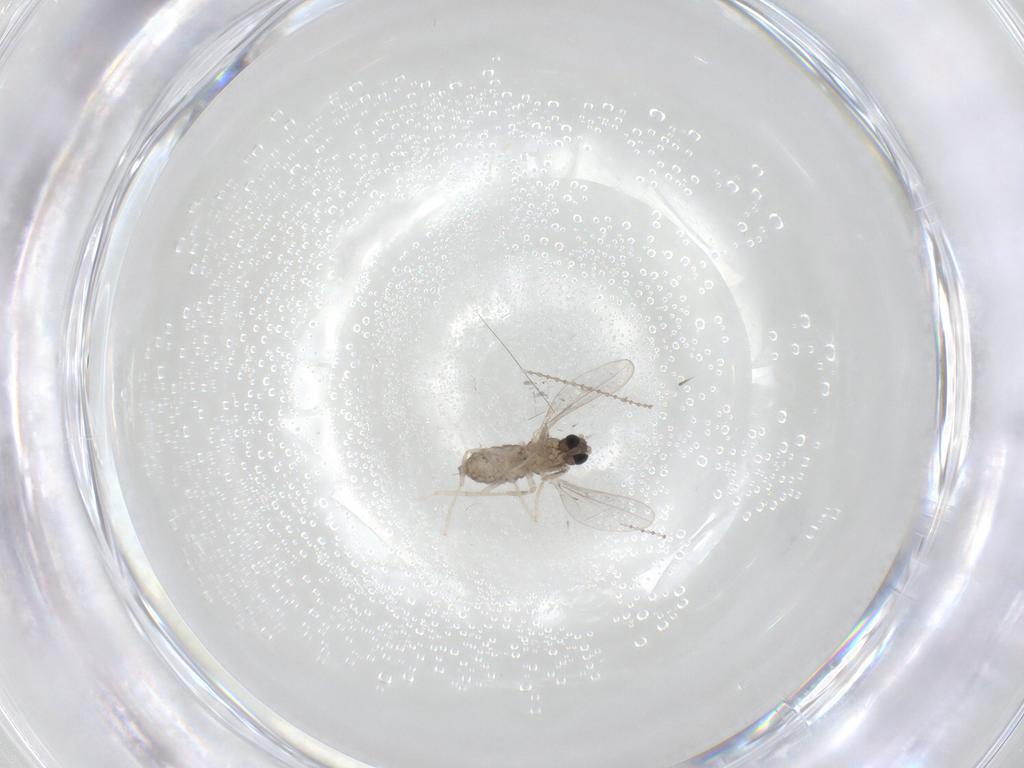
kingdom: Animalia
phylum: Arthropoda
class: Insecta
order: Diptera
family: Cecidomyiidae
